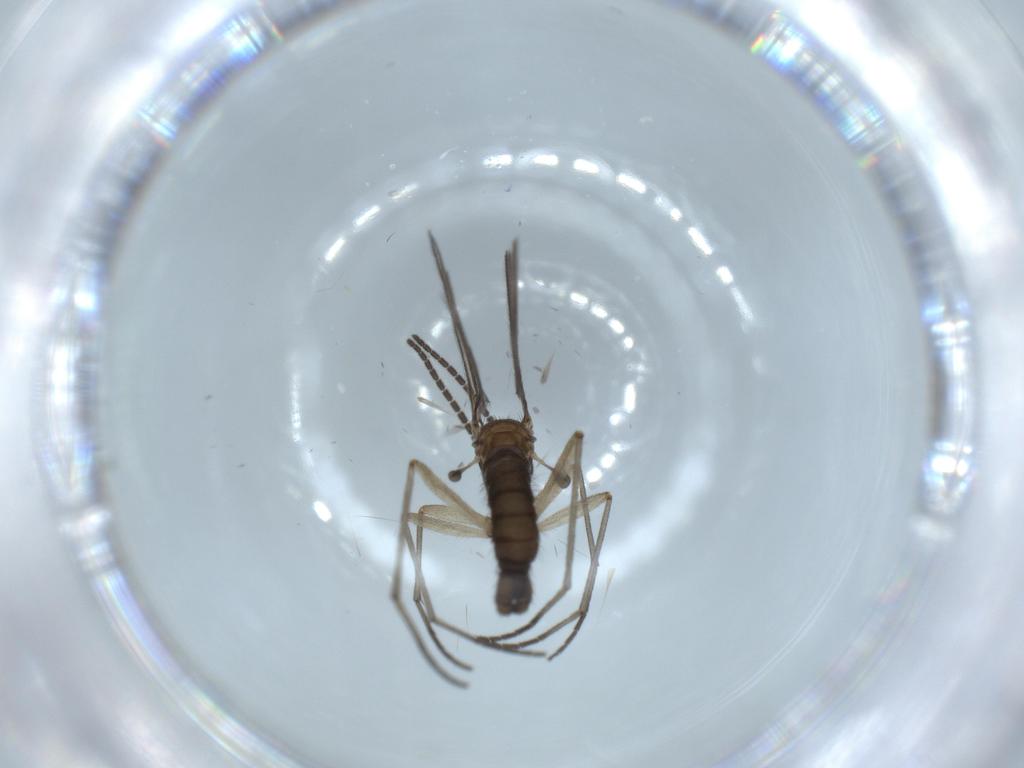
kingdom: Animalia
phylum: Arthropoda
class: Insecta
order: Diptera
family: Sciaridae
